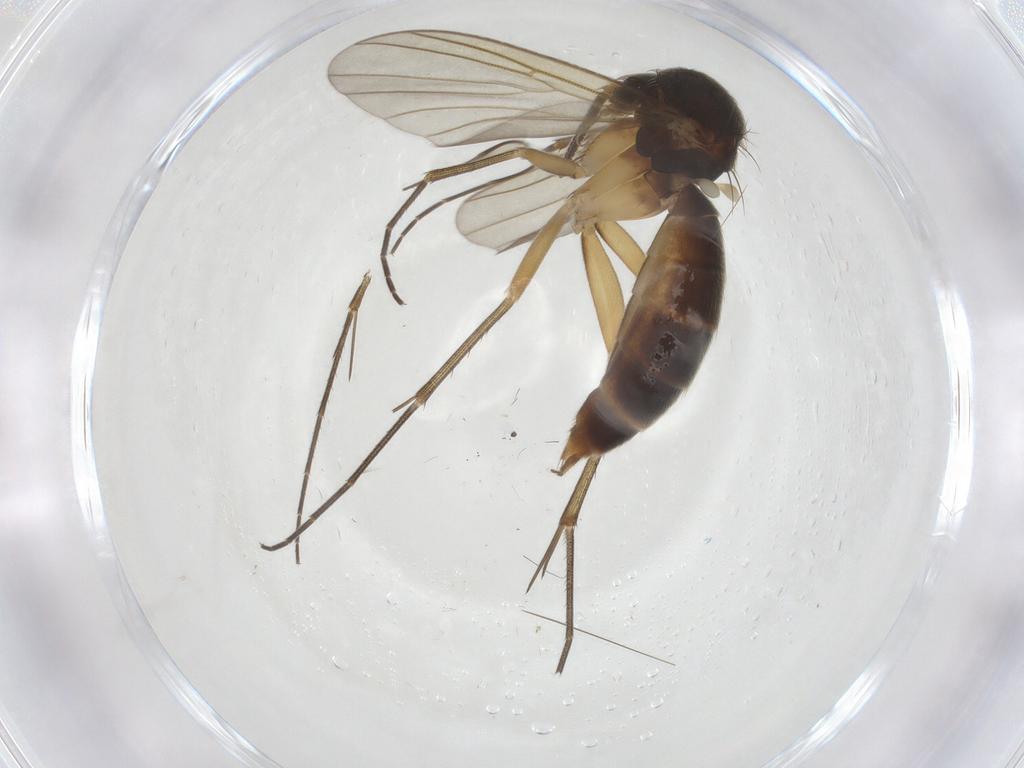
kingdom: Animalia
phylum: Arthropoda
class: Insecta
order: Diptera
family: Mycetophilidae
